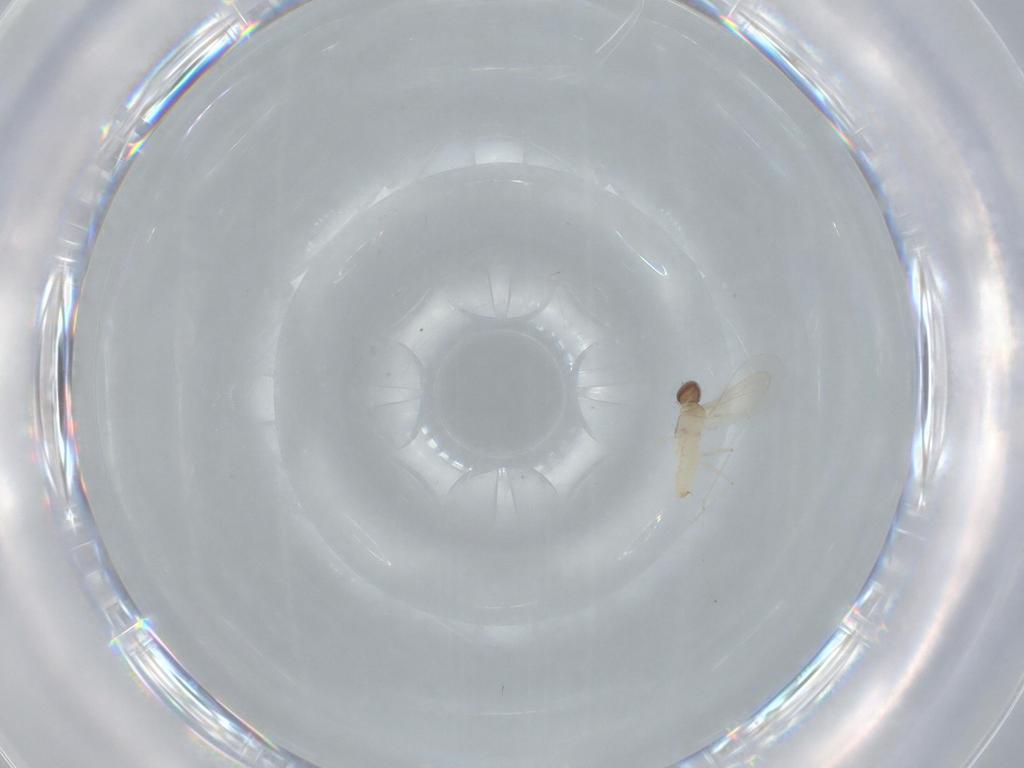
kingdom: Animalia
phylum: Arthropoda
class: Insecta
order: Diptera
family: Cecidomyiidae
